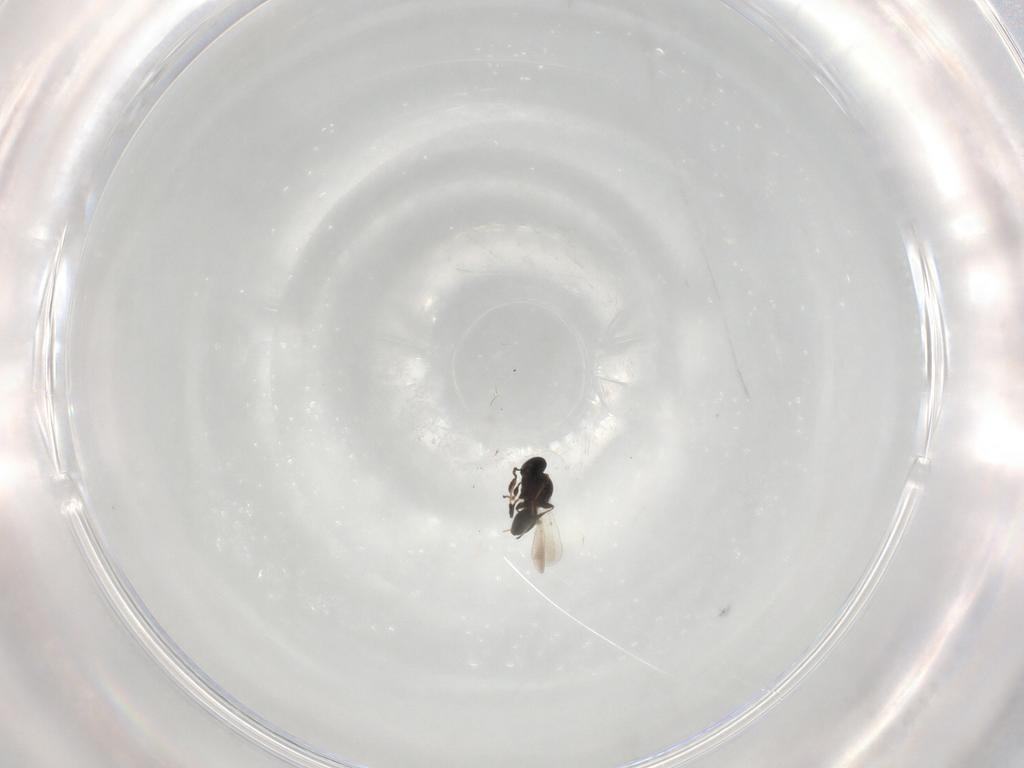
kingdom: Animalia
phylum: Arthropoda
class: Insecta
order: Hymenoptera
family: Platygastridae
